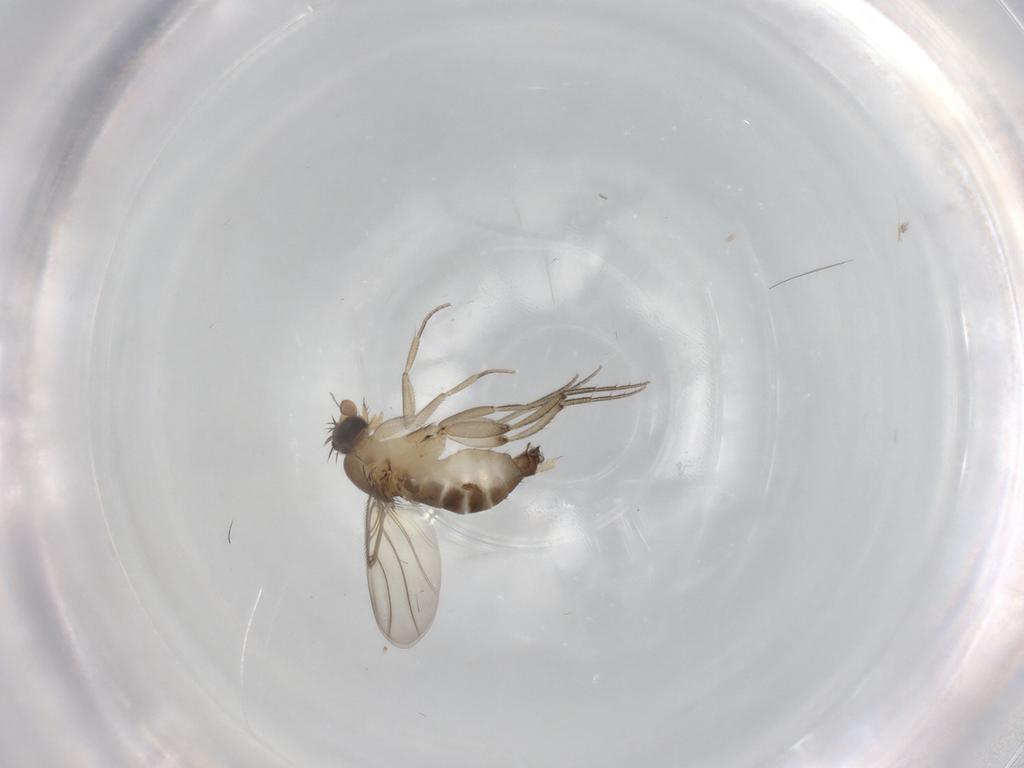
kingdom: Animalia
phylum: Arthropoda
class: Insecta
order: Diptera
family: Phoridae
